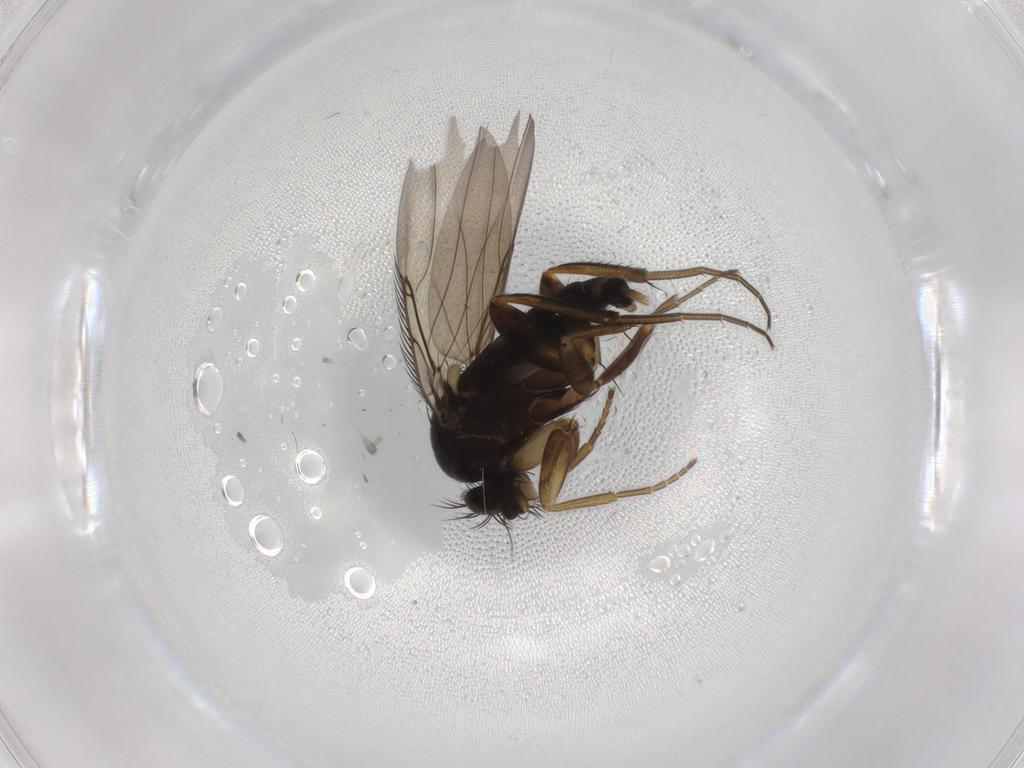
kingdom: Animalia
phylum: Arthropoda
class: Insecta
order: Diptera
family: Phoridae
